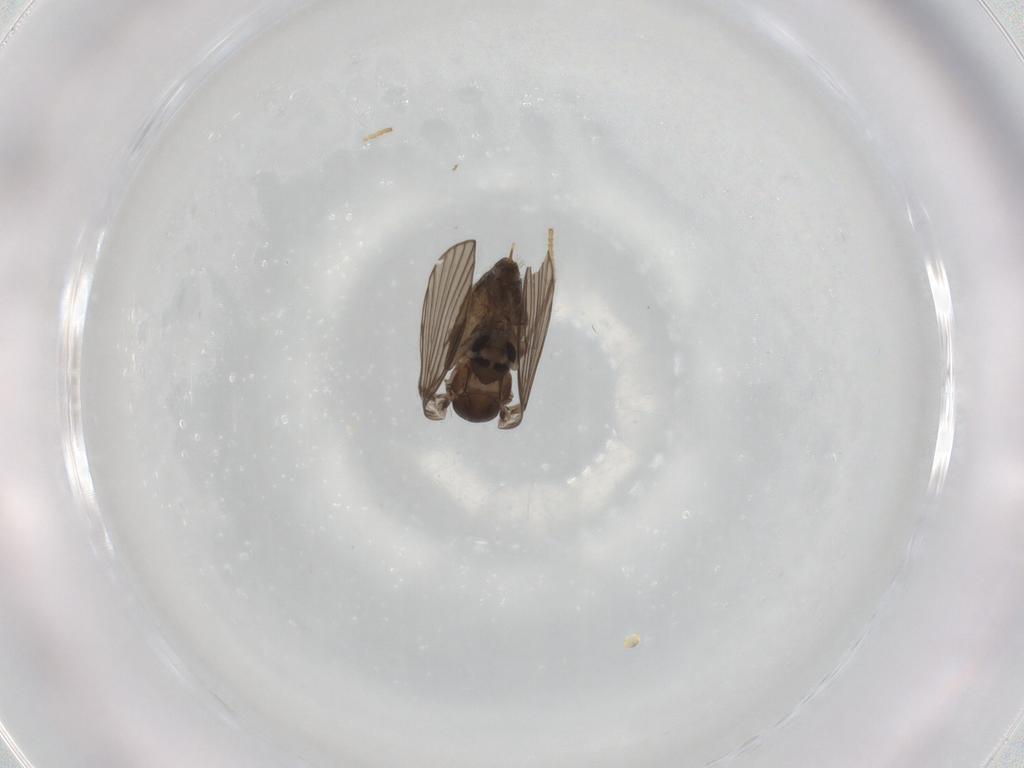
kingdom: Animalia
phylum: Arthropoda
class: Insecta
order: Diptera
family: Psychodidae
